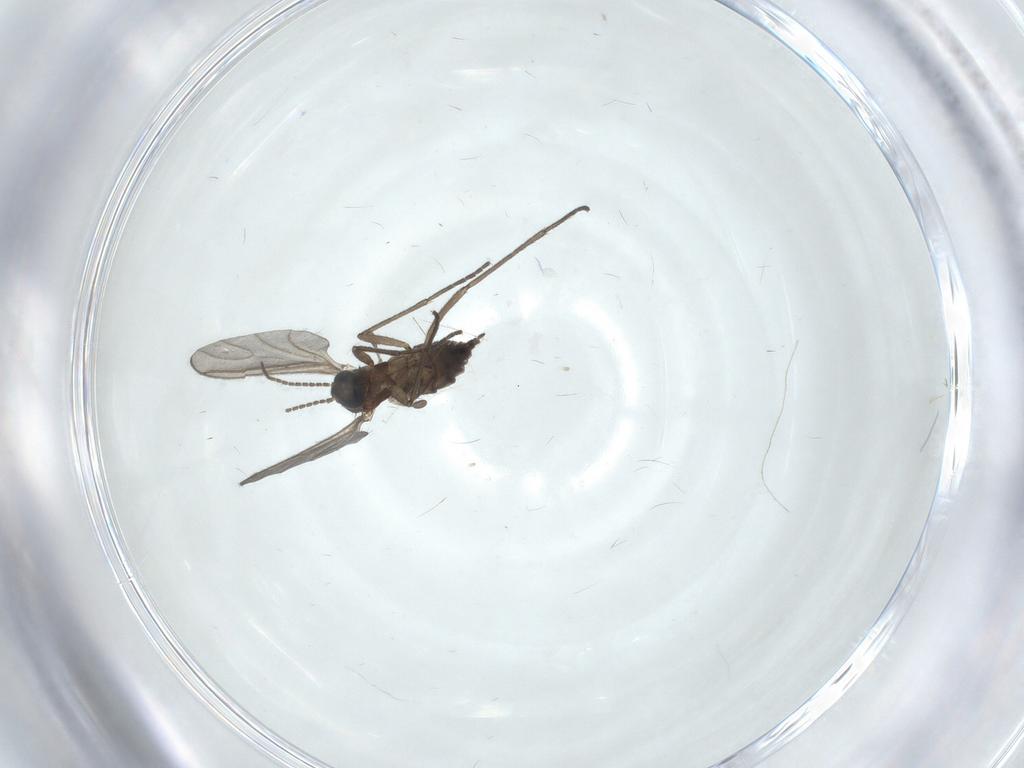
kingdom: Animalia
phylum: Arthropoda
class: Insecta
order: Diptera
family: Sciaridae
